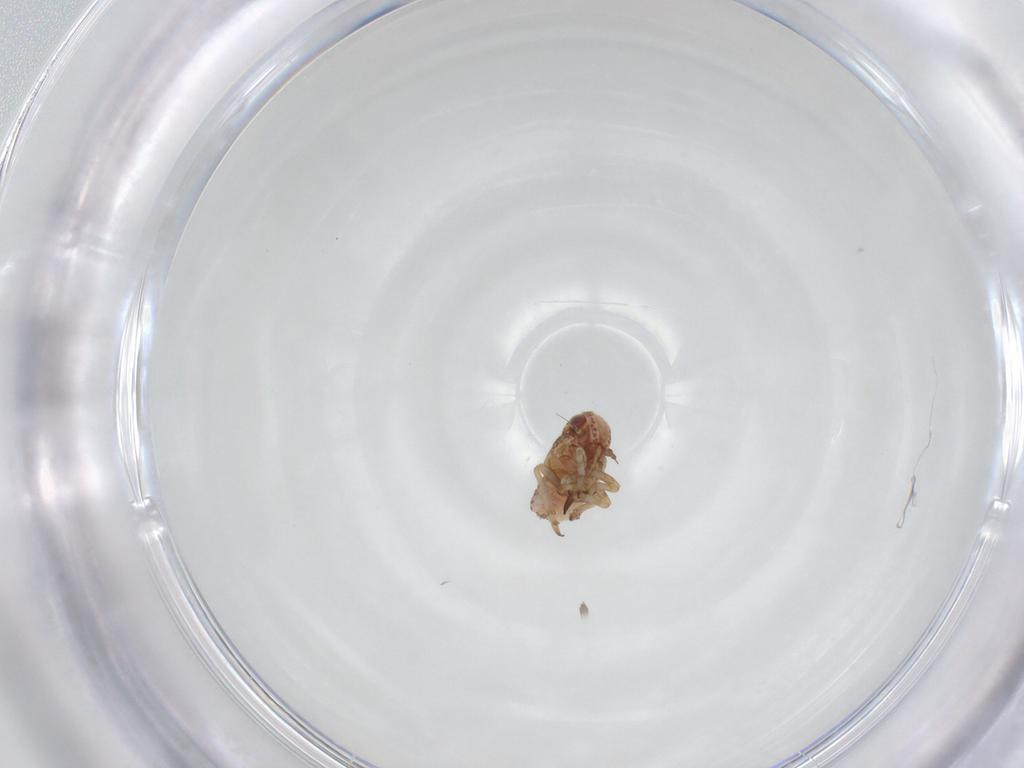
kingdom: Animalia
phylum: Arthropoda
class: Insecta
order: Hemiptera
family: Tropiduchidae
